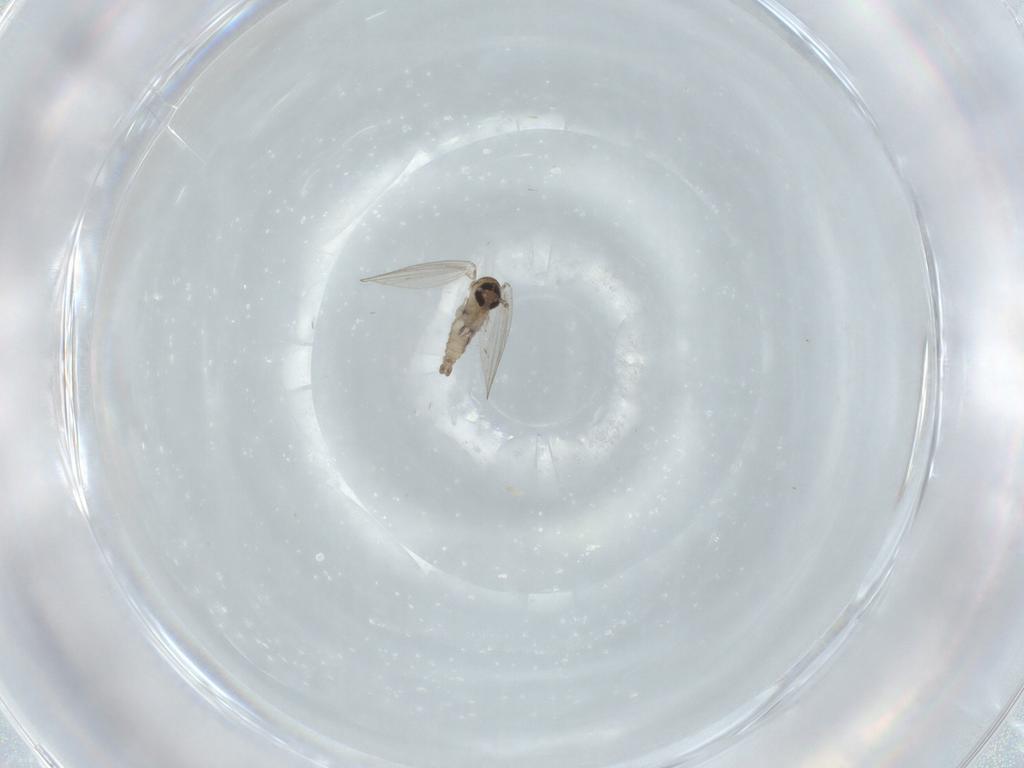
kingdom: Animalia
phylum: Arthropoda
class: Insecta
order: Diptera
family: Psychodidae
